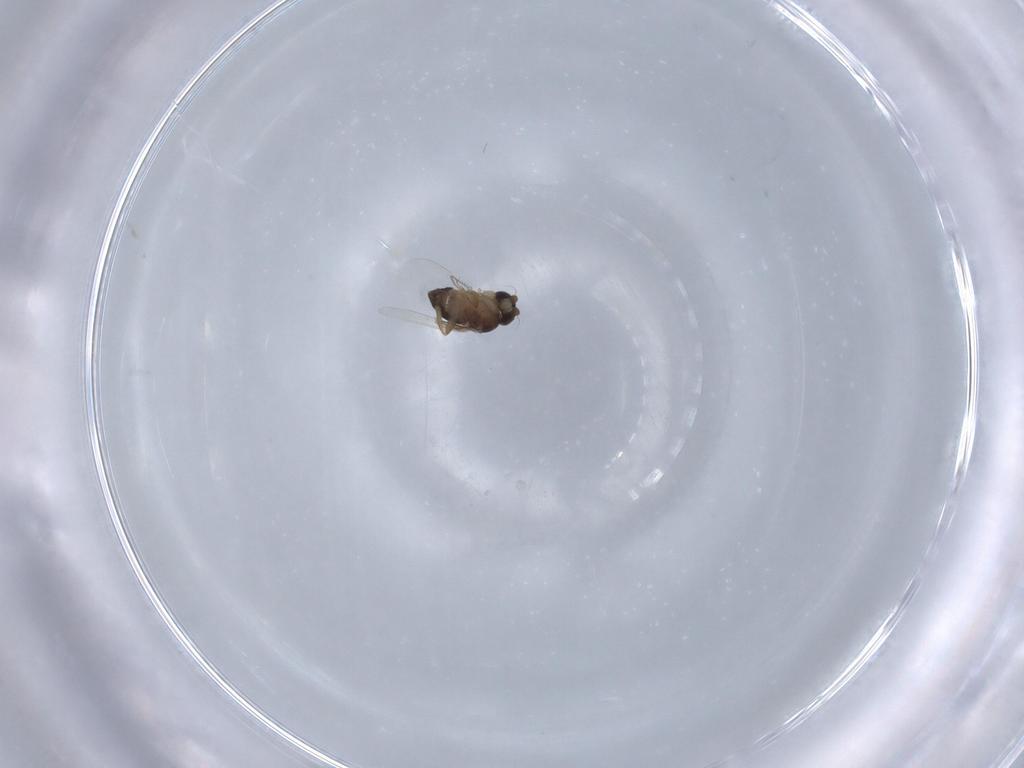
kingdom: Animalia
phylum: Arthropoda
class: Insecta
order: Diptera
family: Phoridae
